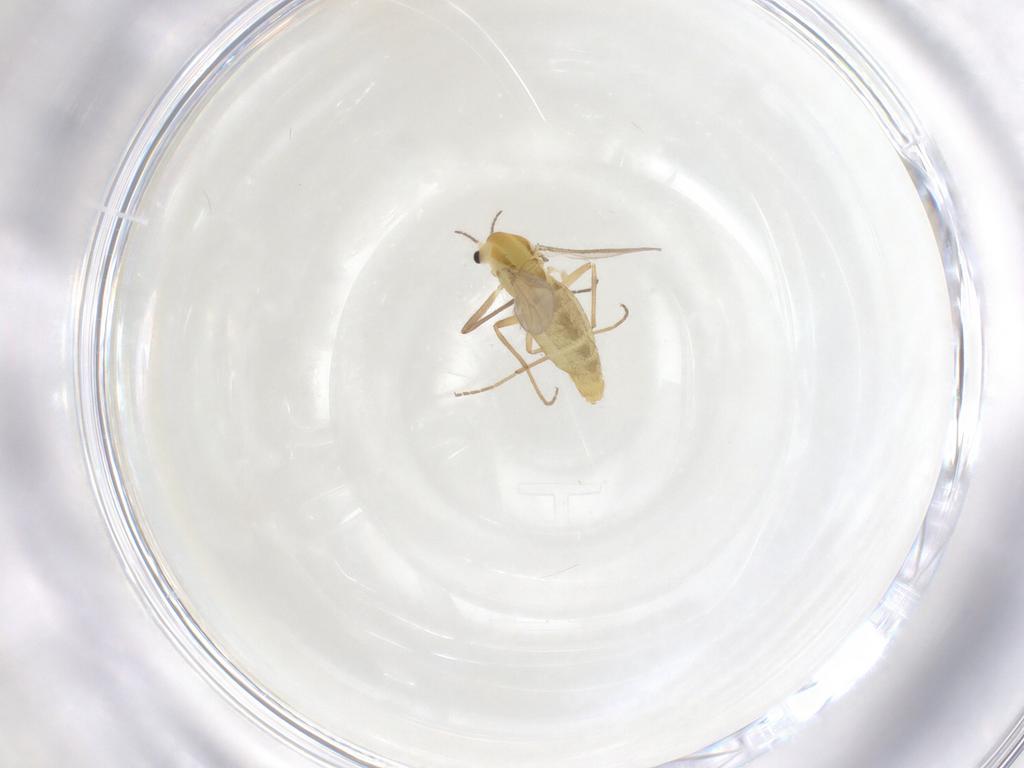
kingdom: Animalia
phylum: Arthropoda
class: Insecta
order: Diptera
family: Chironomidae
